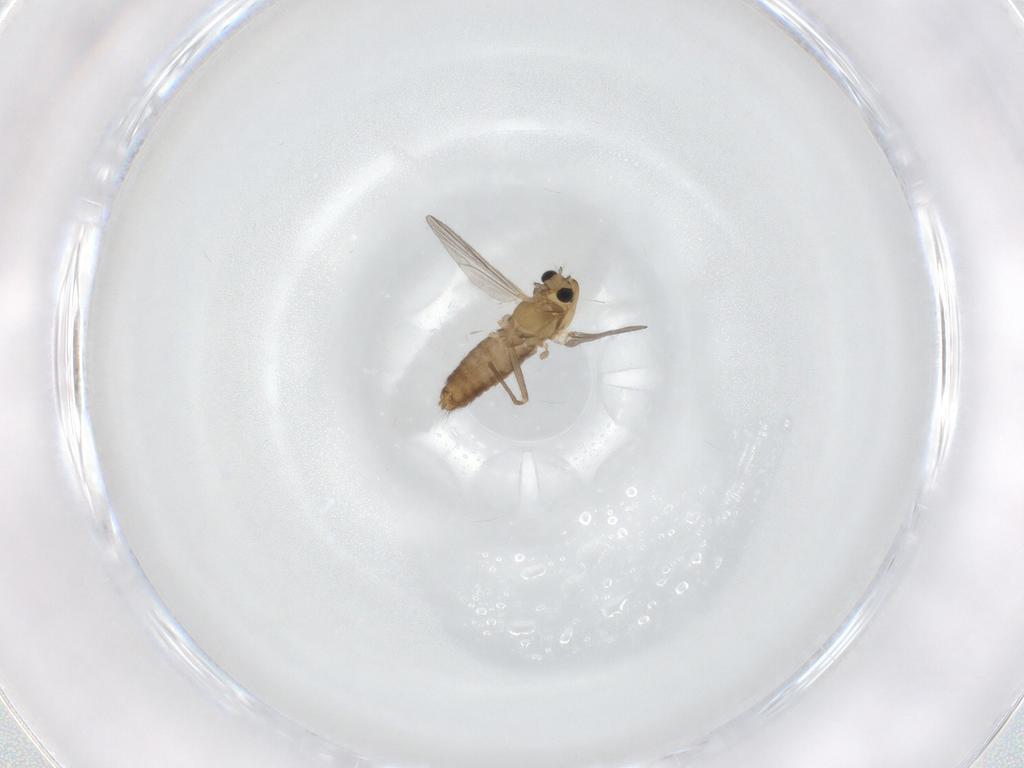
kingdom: Animalia
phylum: Arthropoda
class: Insecta
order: Diptera
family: Chironomidae
